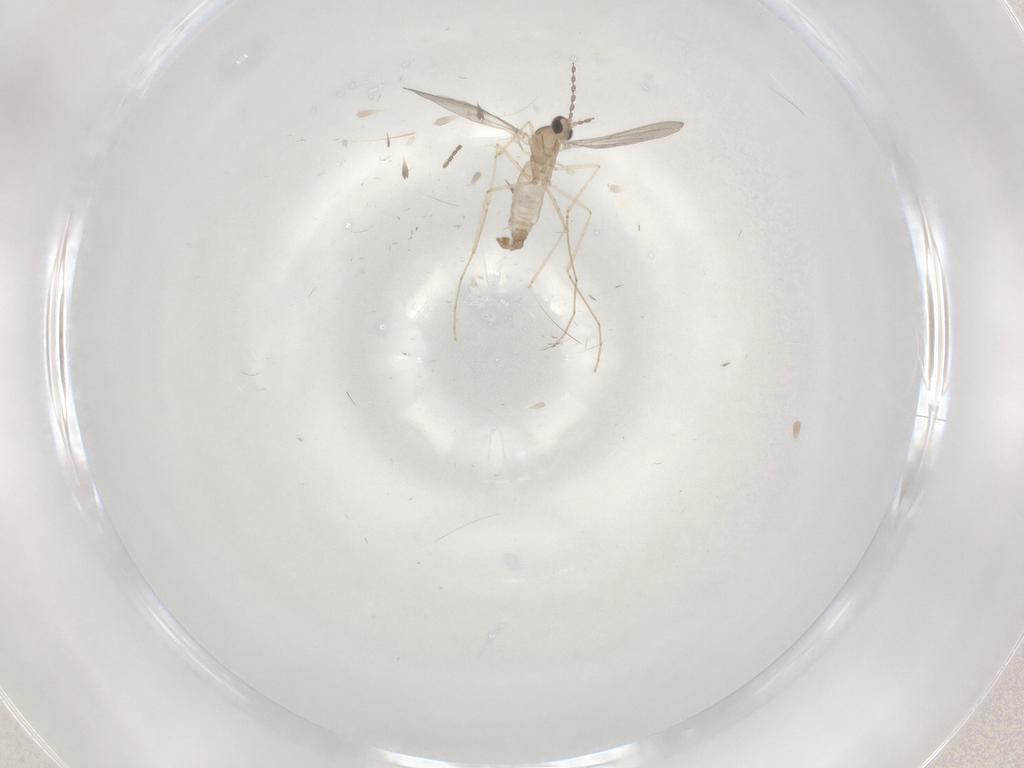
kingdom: Animalia
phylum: Arthropoda
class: Insecta
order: Diptera
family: Cecidomyiidae
